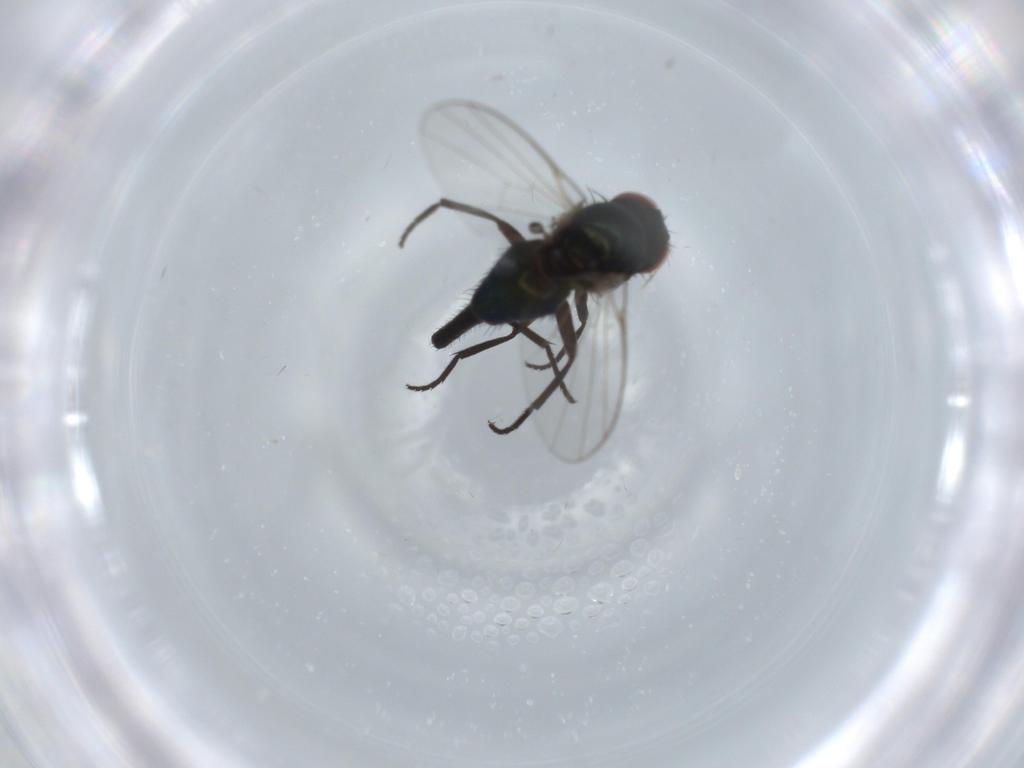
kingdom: Animalia
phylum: Arthropoda
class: Insecta
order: Diptera
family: Agromyzidae
